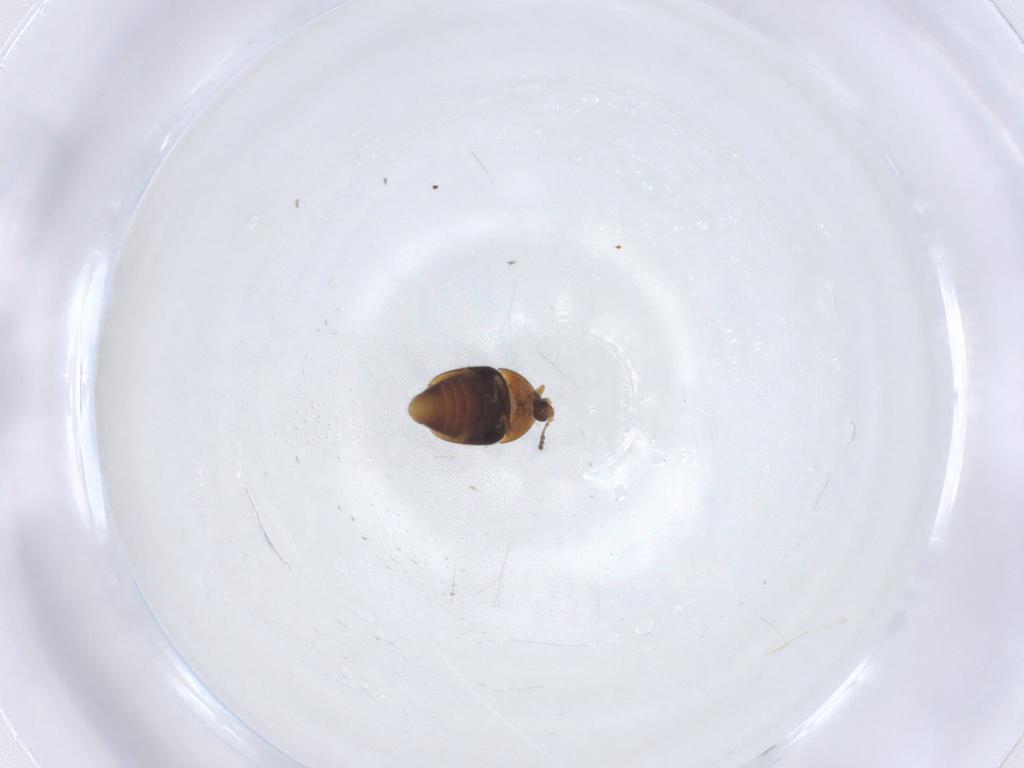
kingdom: Animalia
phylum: Arthropoda
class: Insecta
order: Coleoptera
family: Corylophidae
